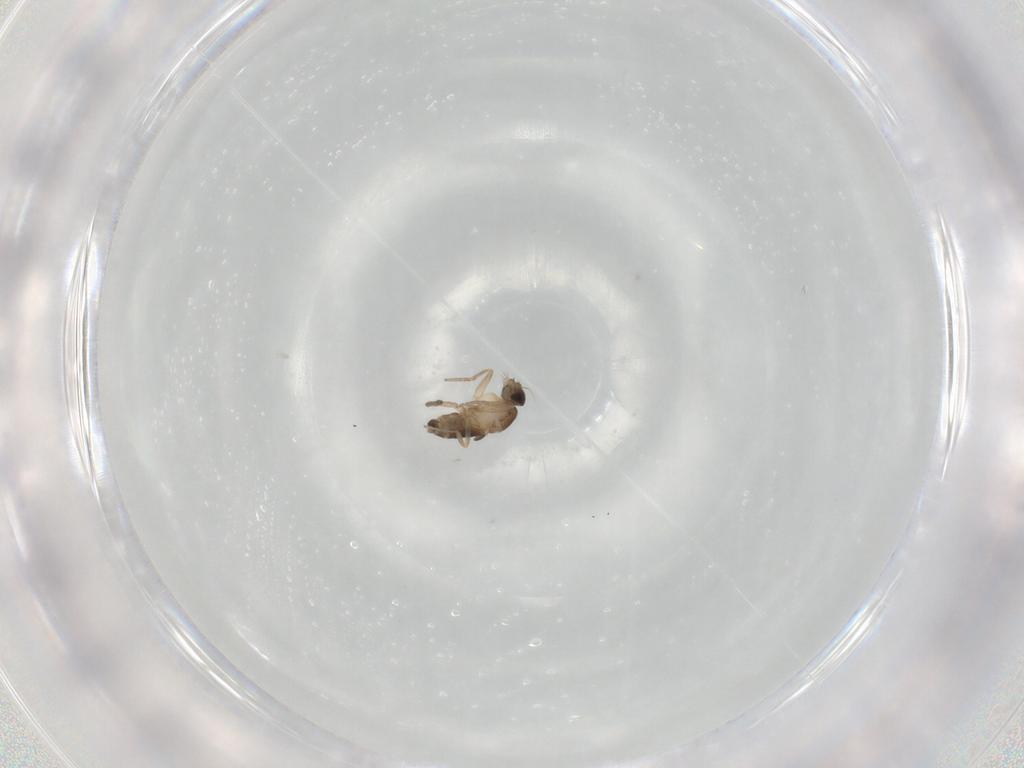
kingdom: Animalia
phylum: Arthropoda
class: Insecta
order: Diptera
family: Phoridae
